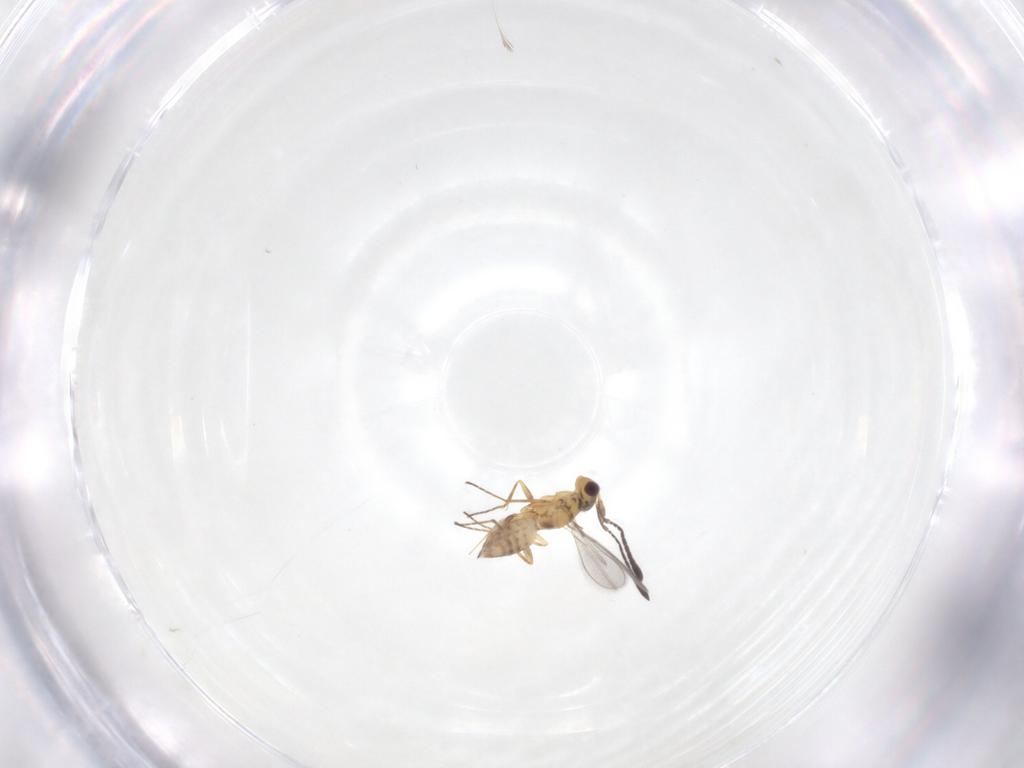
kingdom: Animalia
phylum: Arthropoda
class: Insecta
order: Hymenoptera
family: Mymaridae
